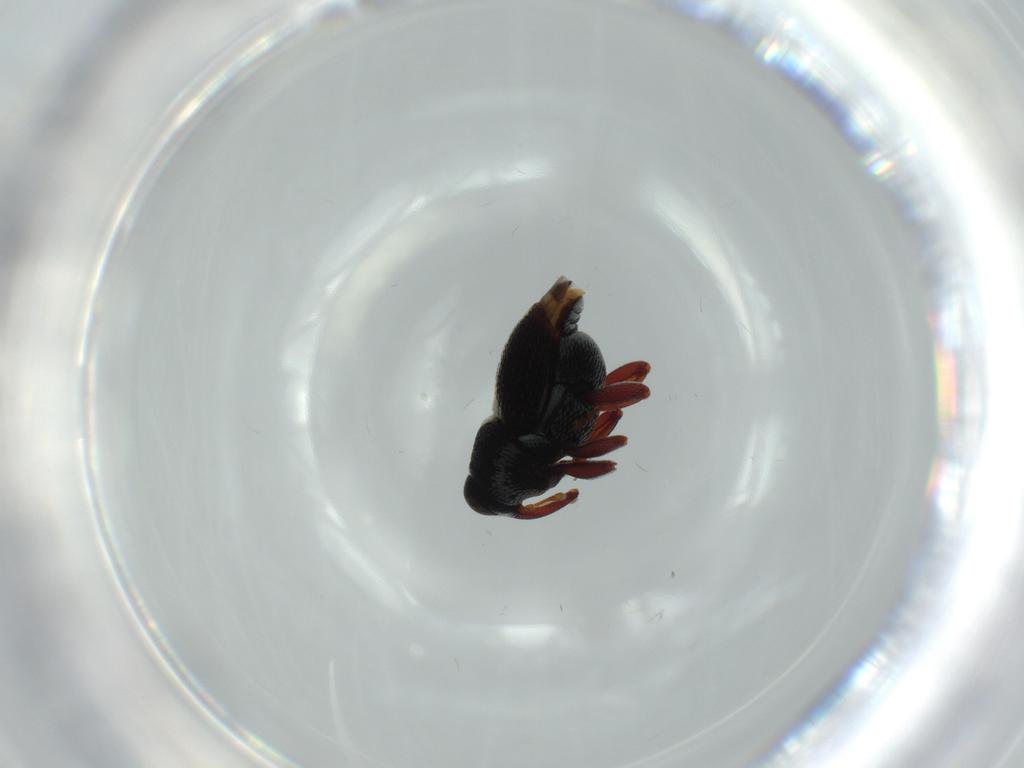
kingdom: Animalia
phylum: Arthropoda
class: Insecta
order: Coleoptera
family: Curculionidae
